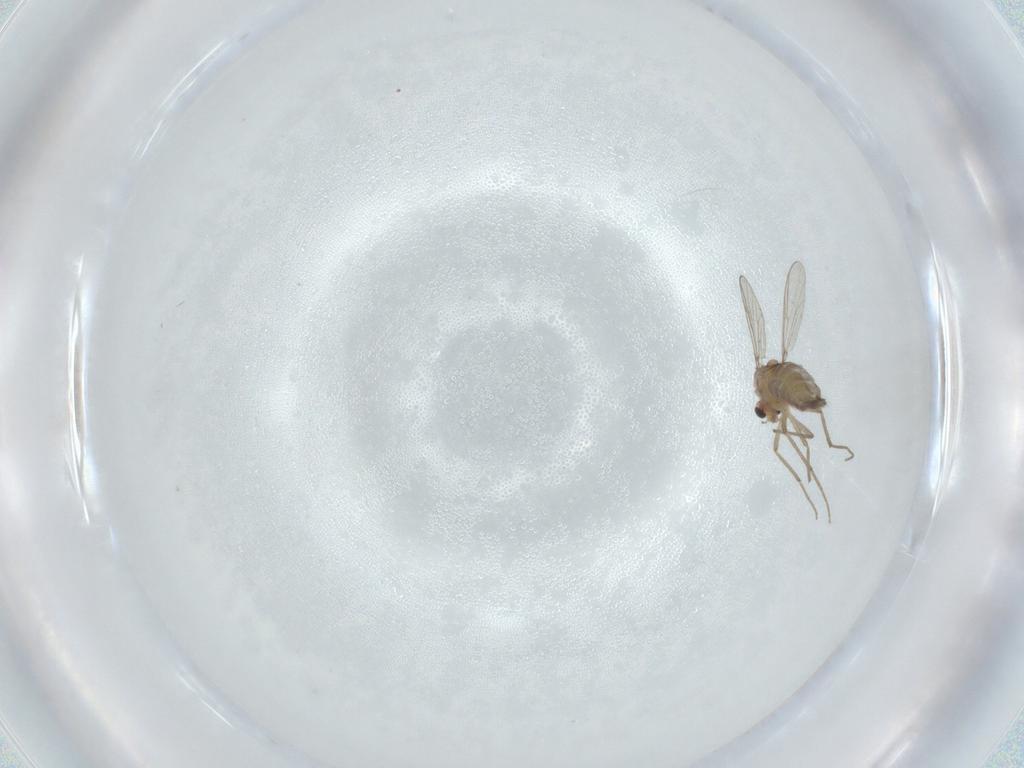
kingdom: Animalia
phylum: Arthropoda
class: Insecta
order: Diptera
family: Chironomidae
